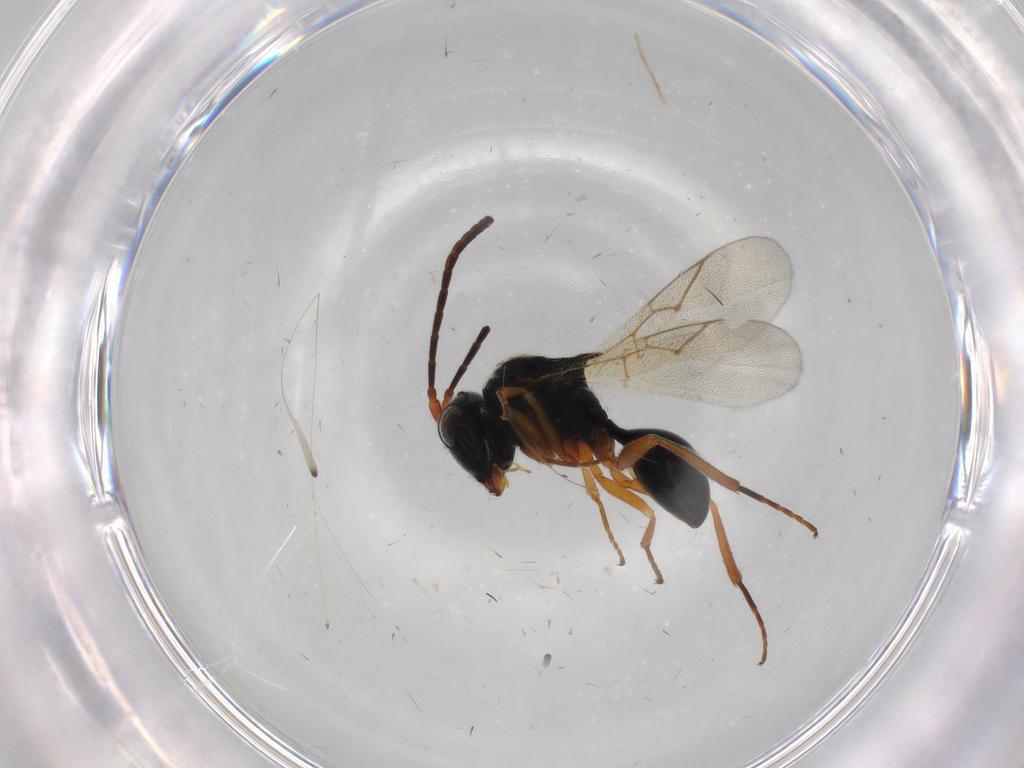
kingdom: Animalia
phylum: Arthropoda
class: Insecta
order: Hymenoptera
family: Figitidae
